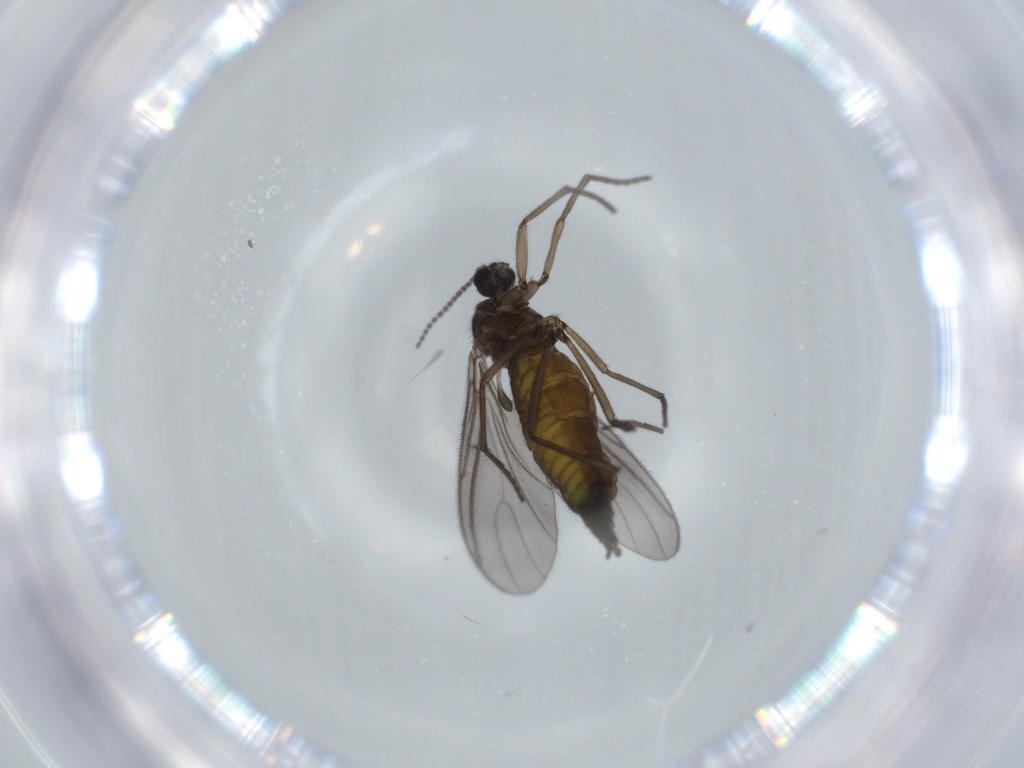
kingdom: Animalia
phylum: Arthropoda
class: Insecta
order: Diptera
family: Sciaridae
